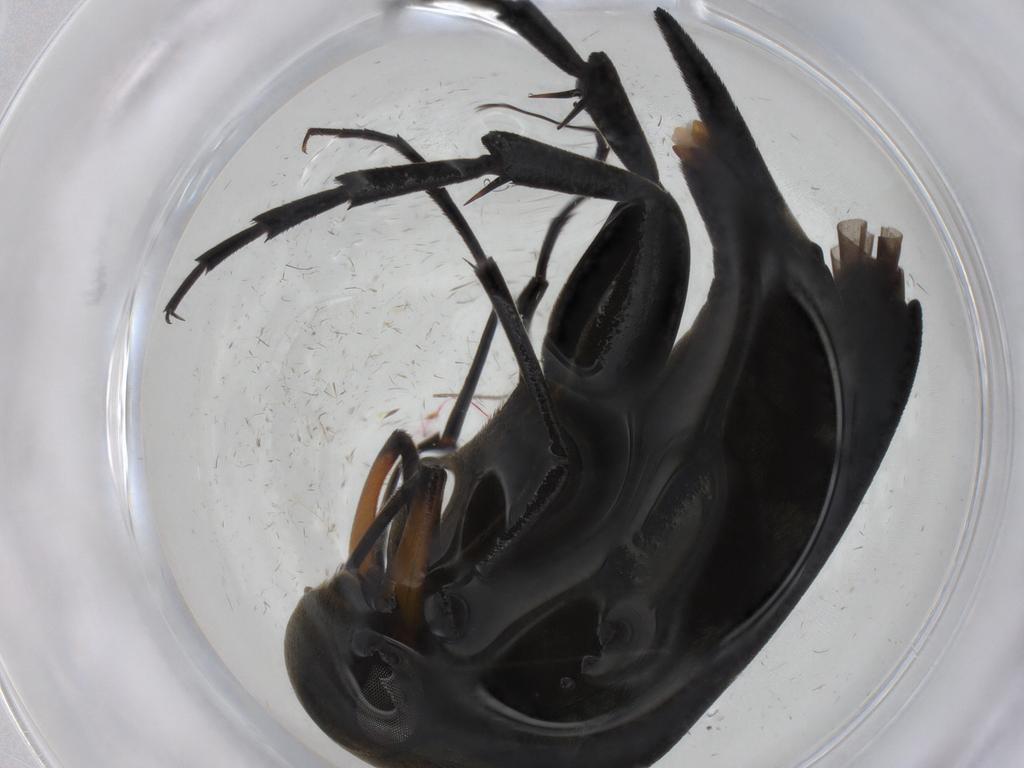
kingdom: Animalia
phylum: Arthropoda
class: Insecta
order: Coleoptera
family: Mordellidae
